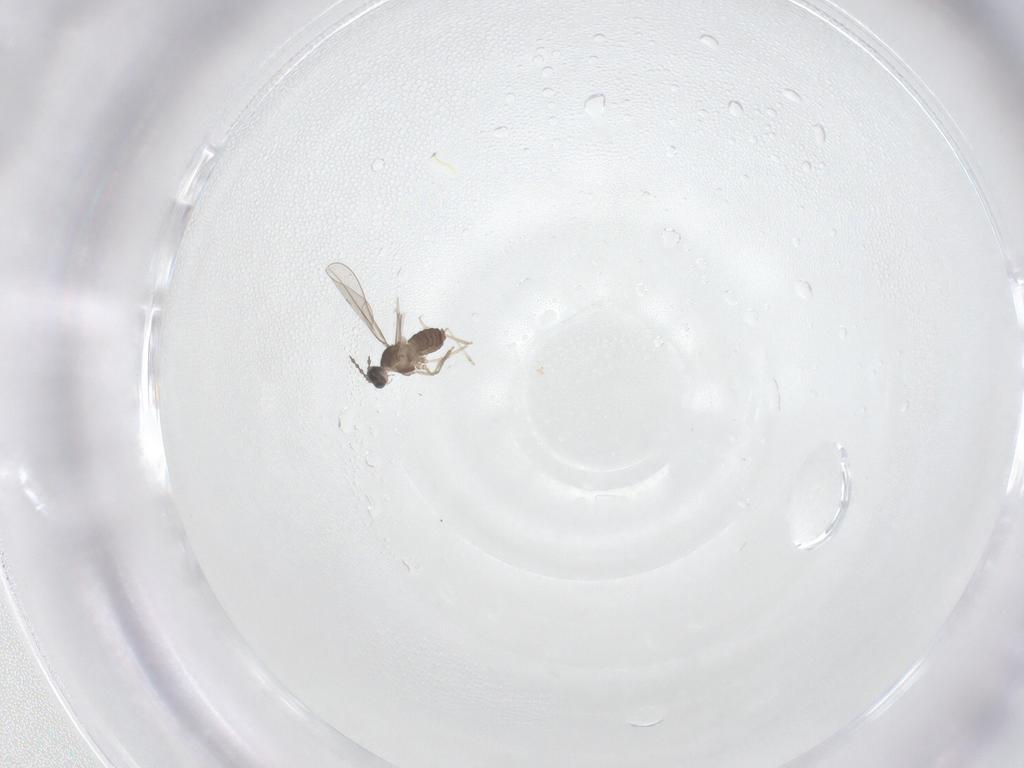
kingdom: Animalia
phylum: Arthropoda
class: Insecta
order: Diptera
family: Cecidomyiidae
